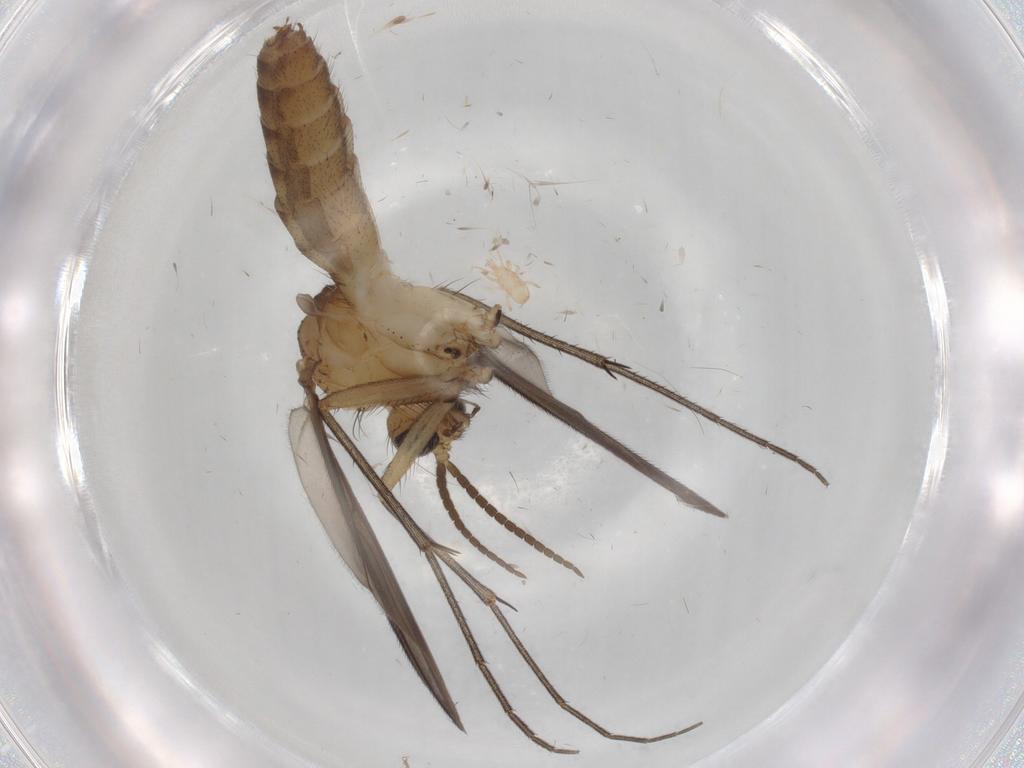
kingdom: Animalia
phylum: Arthropoda
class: Insecta
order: Diptera
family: Mycetophilidae
